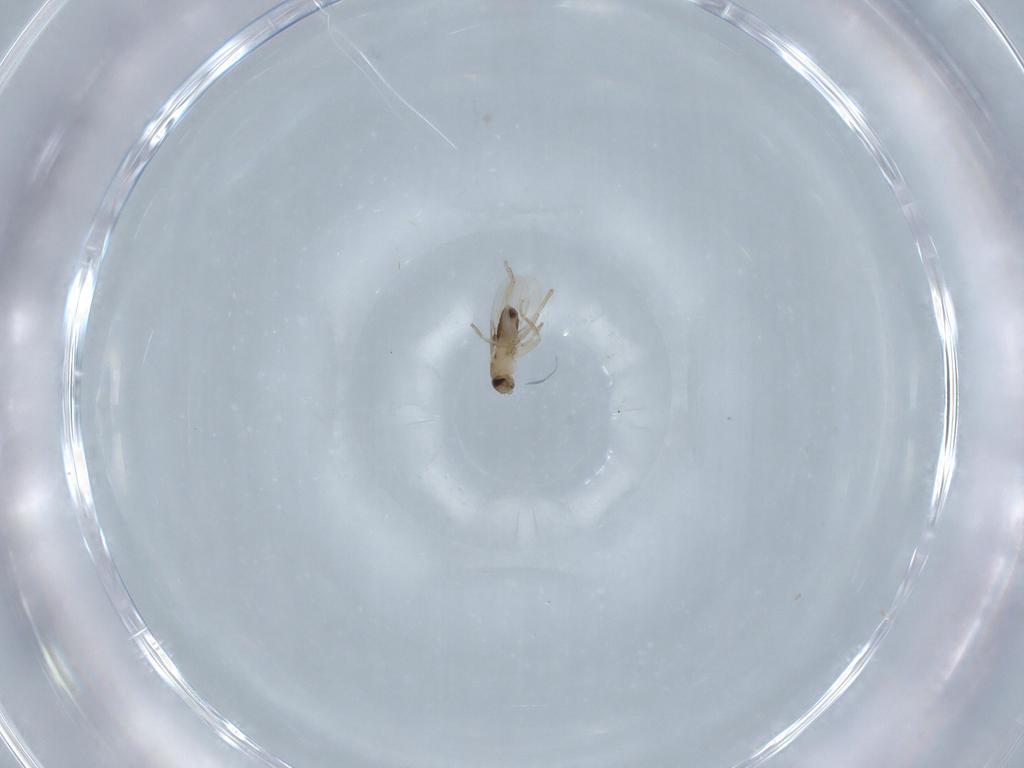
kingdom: Animalia
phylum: Arthropoda
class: Insecta
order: Diptera
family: Phoridae
